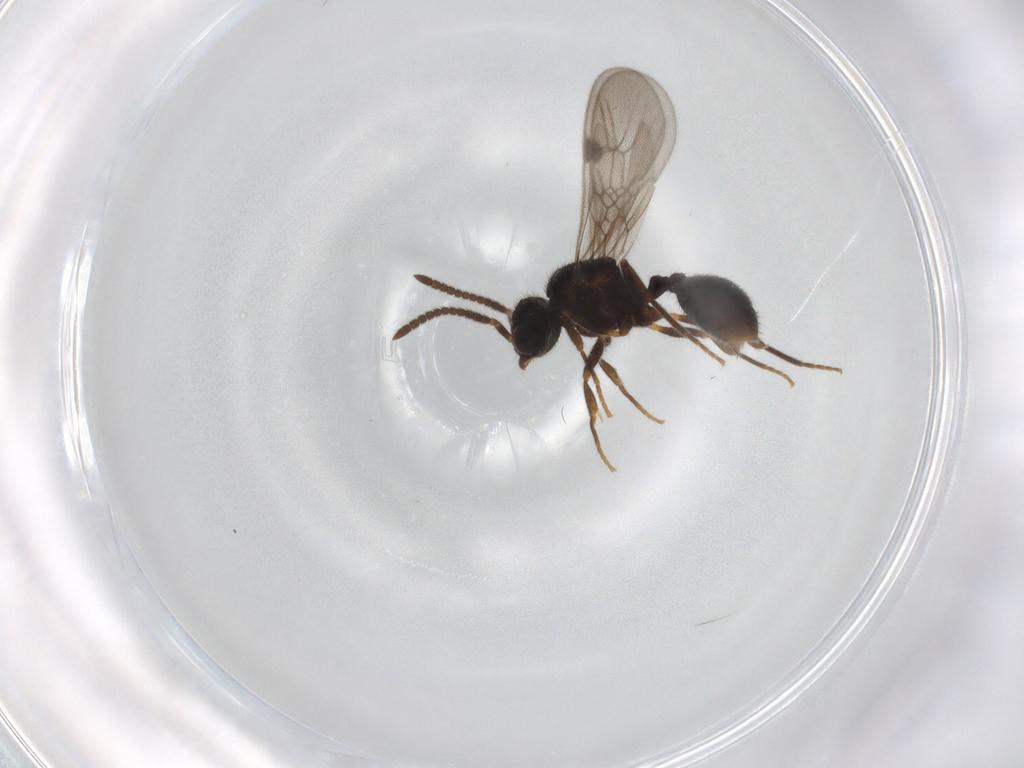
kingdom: Animalia
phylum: Arthropoda
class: Insecta
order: Hymenoptera
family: Formicidae
